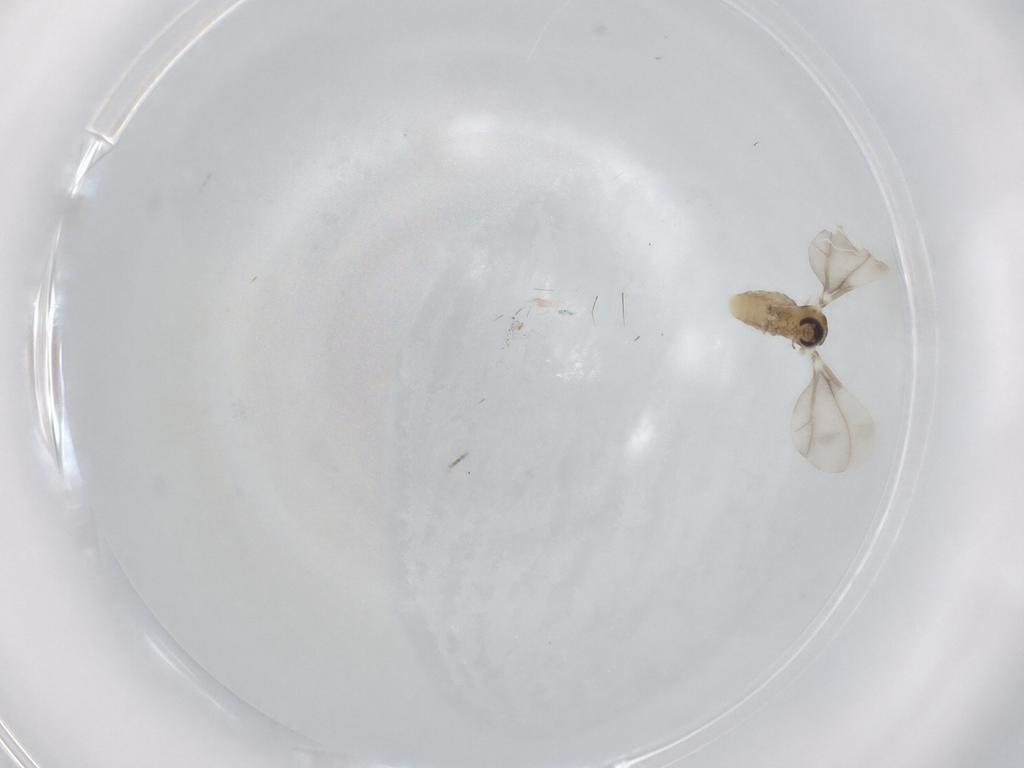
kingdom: Animalia
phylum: Arthropoda
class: Insecta
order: Diptera
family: Cecidomyiidae
